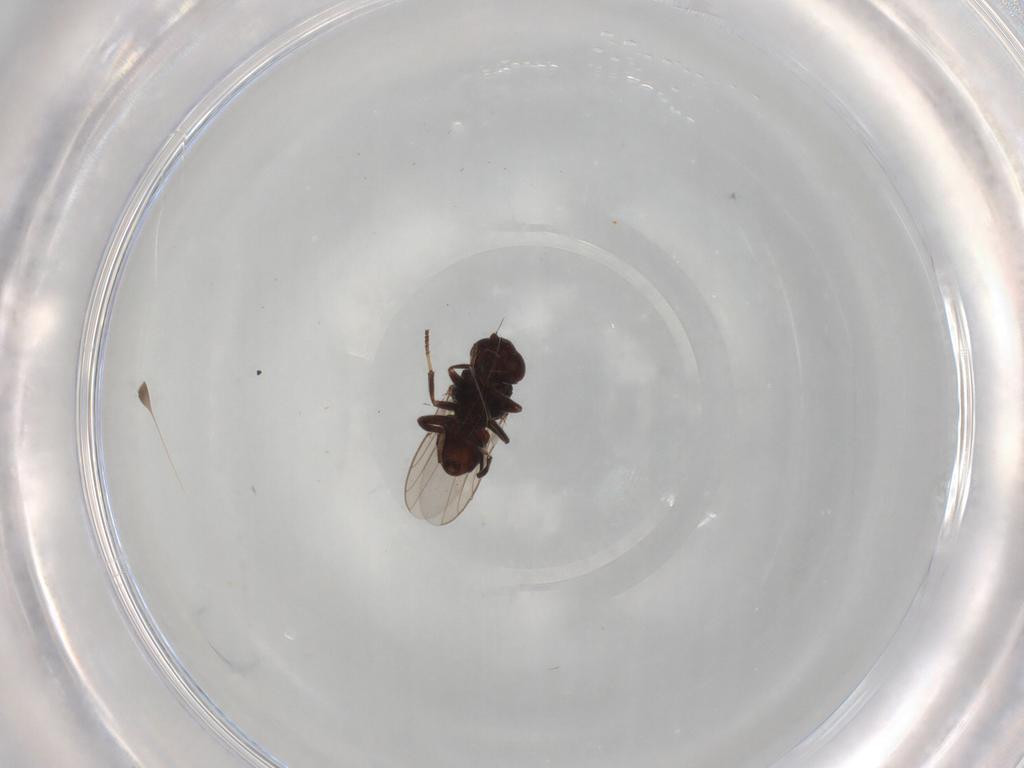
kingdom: Animalia
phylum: Arthropoda
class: Insecta
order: Diptera
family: Chloropidae
